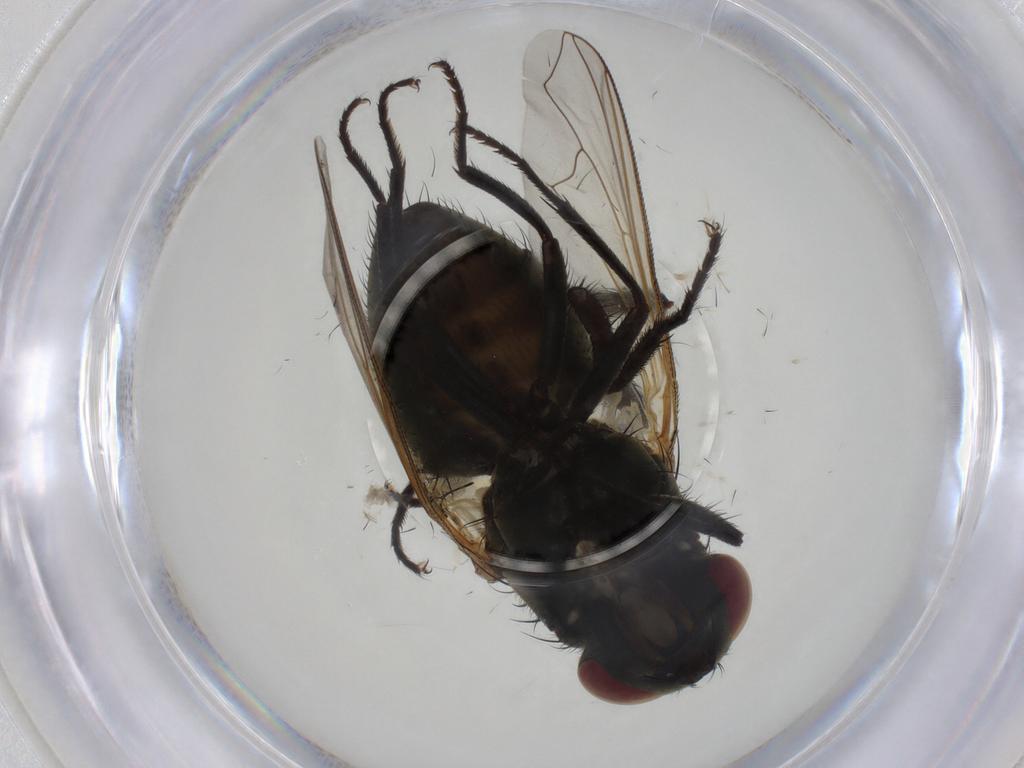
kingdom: Animalia
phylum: Arthropoda
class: Insecta
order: Diptera
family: Muscidae
